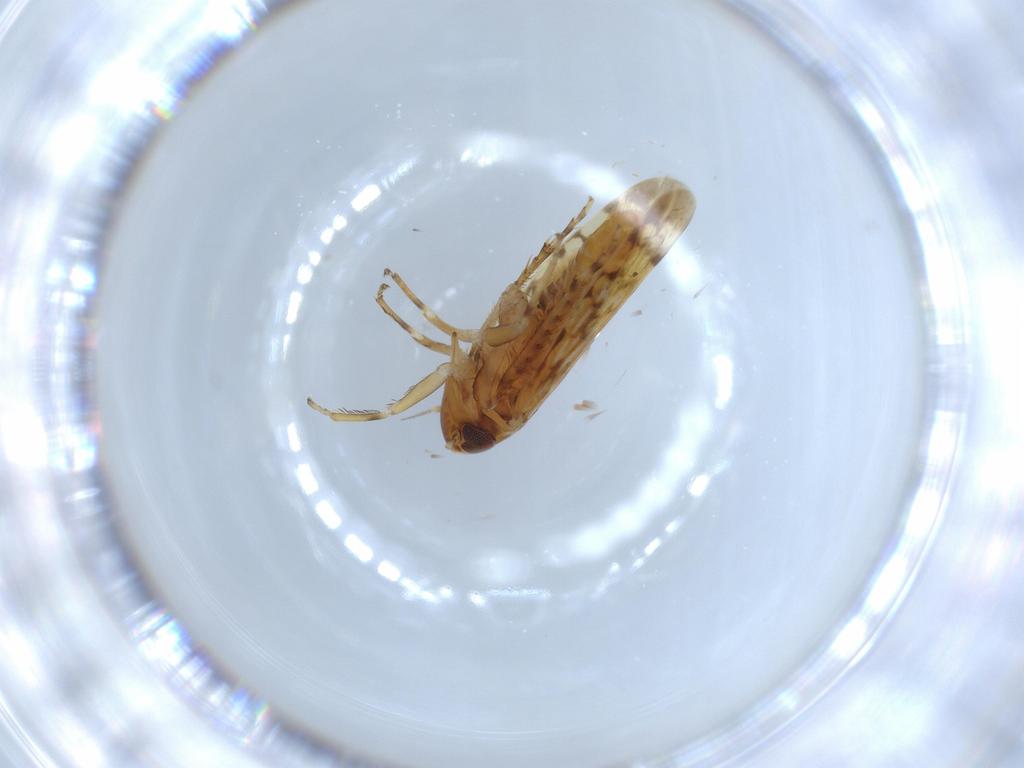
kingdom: Animalia
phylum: Arthropoda
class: Insecta
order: Hemiptera
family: Cicadellidae
